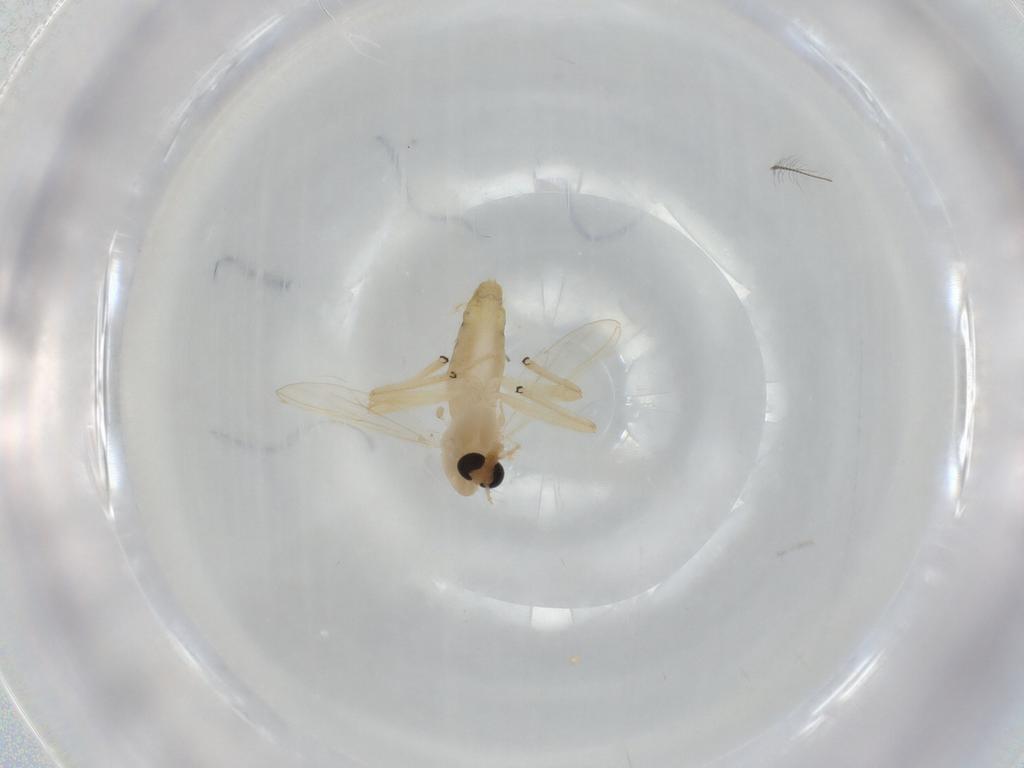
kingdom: Animalia
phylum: Arthropoda
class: Insecta
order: Diptera
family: Chironomidae
